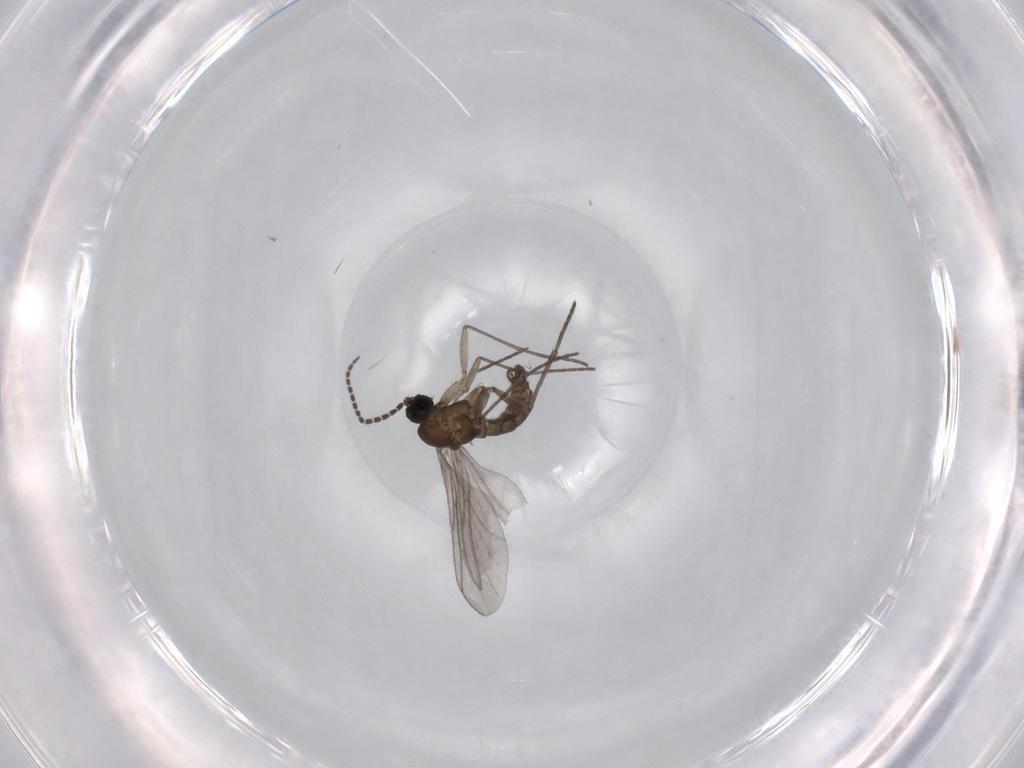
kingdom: Animalia
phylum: Arthropoda
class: Insecta
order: Diptera
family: Sciaridae
